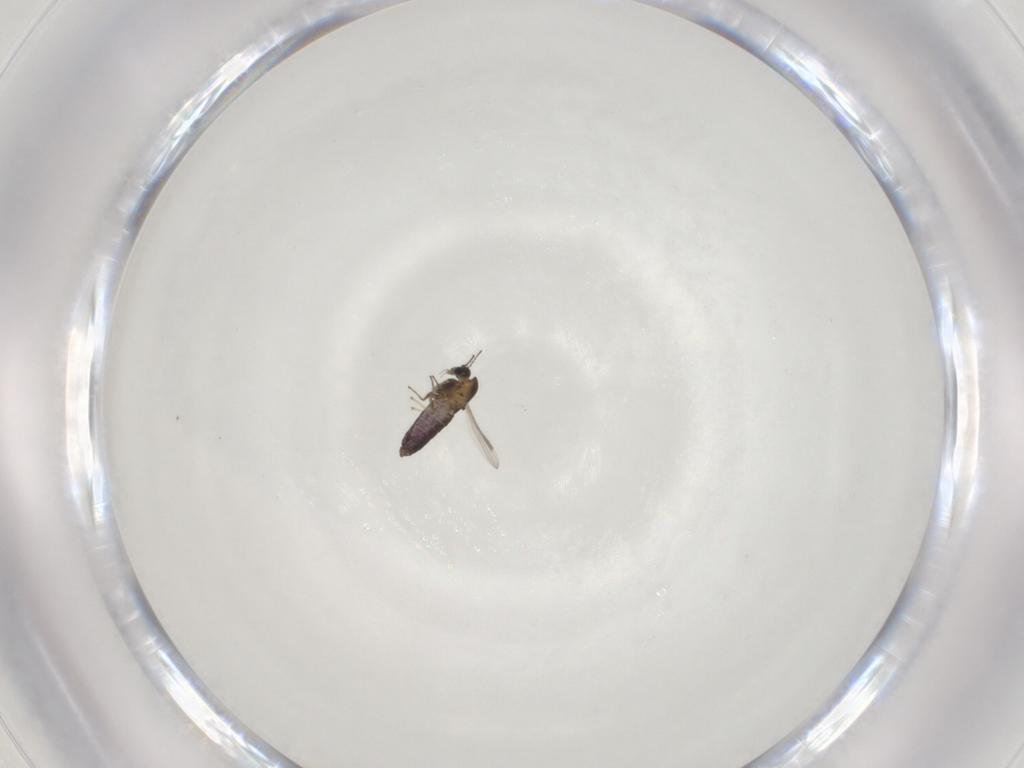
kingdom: Animalia
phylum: Arthropoda
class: Insecta
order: Diptera
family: Chironomidae
